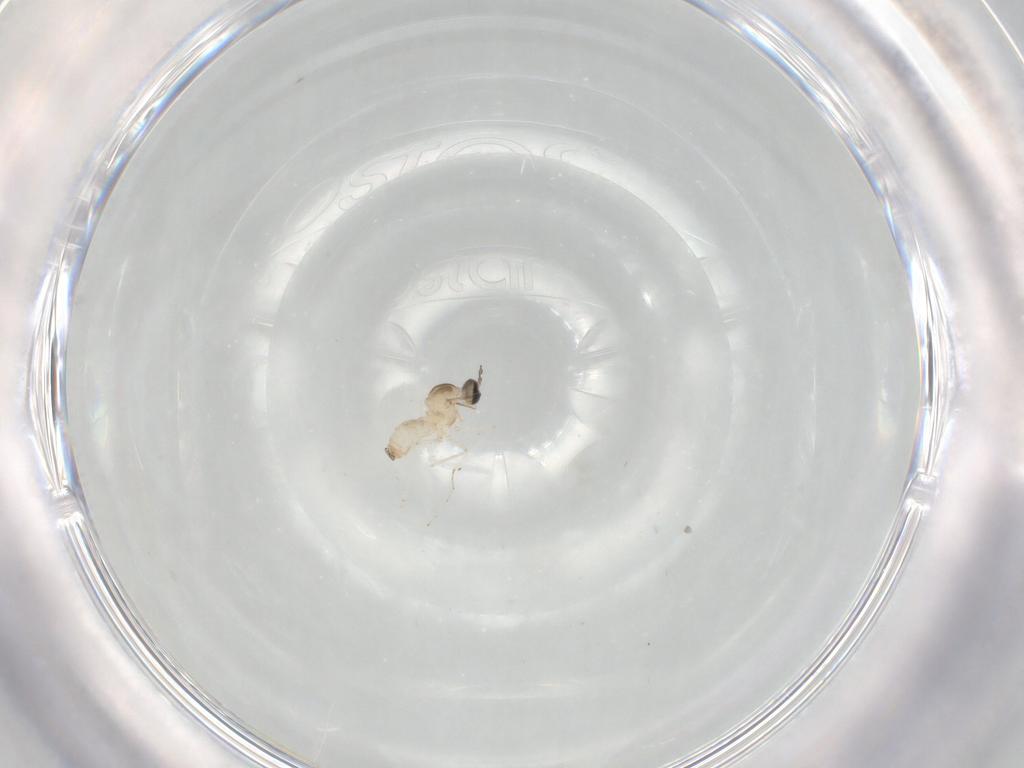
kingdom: Animalia
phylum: Arthropoda
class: Insecta
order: Diptera
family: Cecidomyiidae
